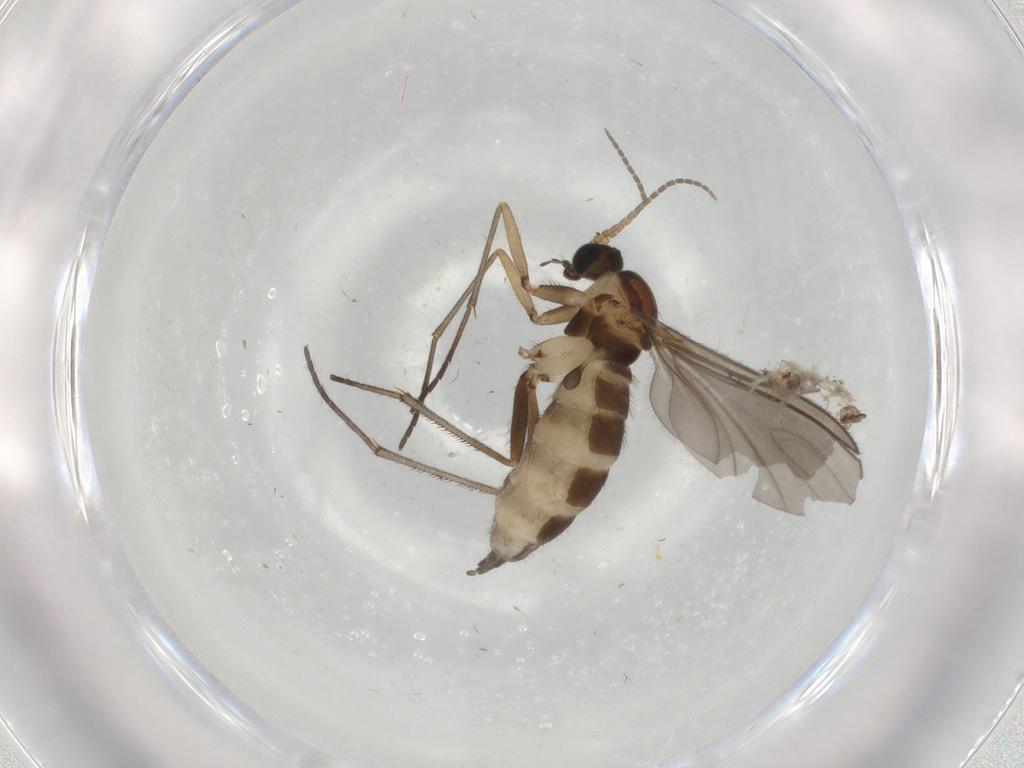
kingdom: Animalia
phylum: Arthropoda
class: Insecta
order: Diptera
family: Sciaridae
